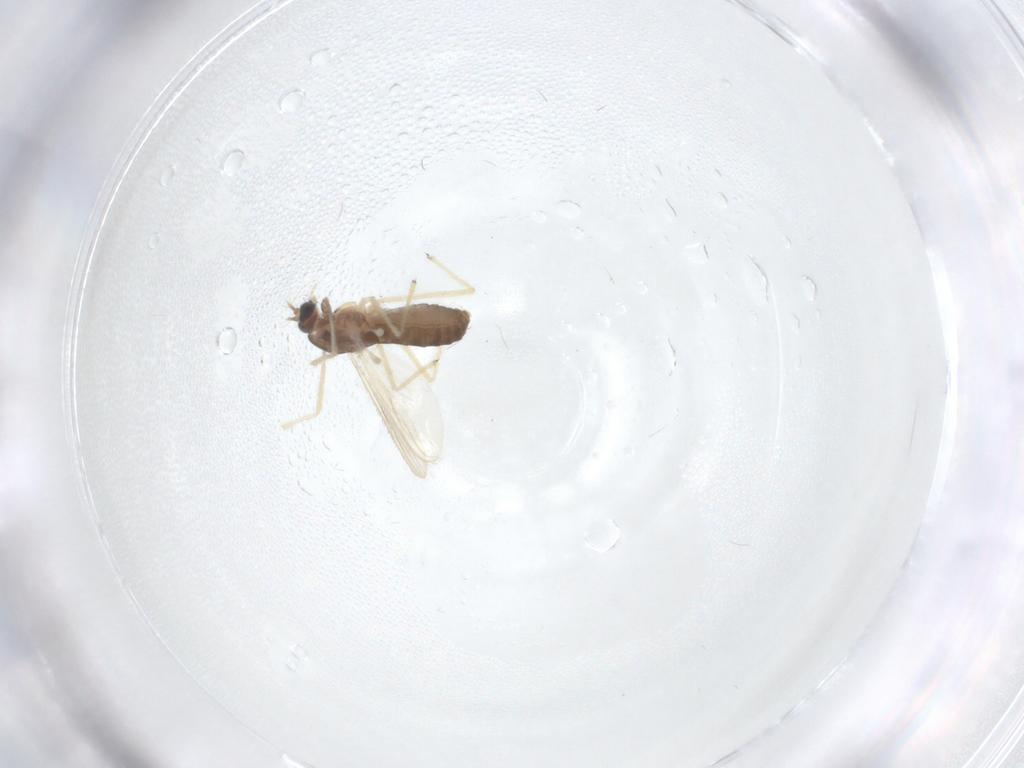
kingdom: Animalia
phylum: Arthropoda
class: Insecta
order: Diptera
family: Chironomidae
